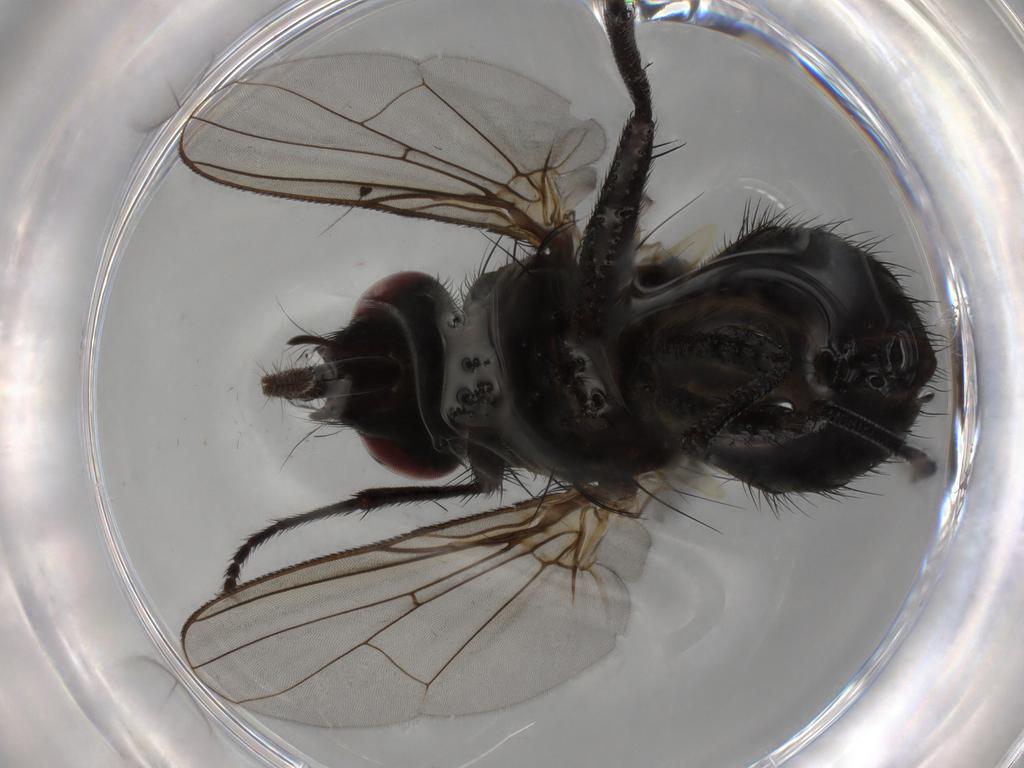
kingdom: Animalia
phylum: Arthropoda
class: Insecta
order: Diptera
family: Muscidae
